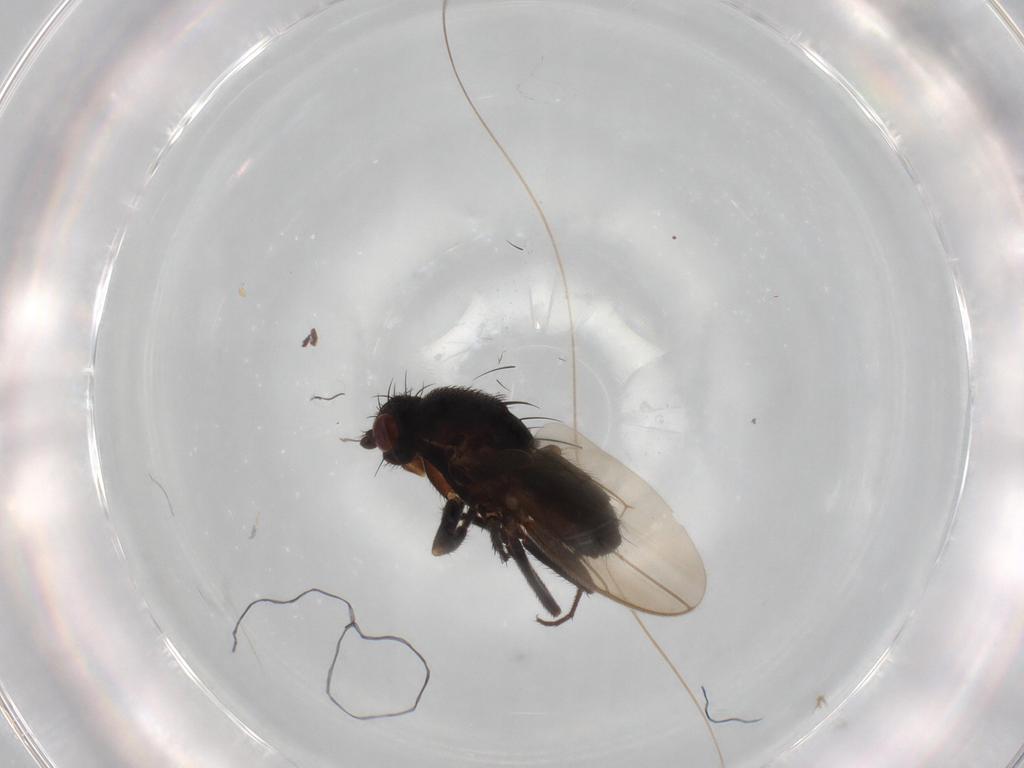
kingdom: Animalia
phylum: Arthropoda
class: Insecta
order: Diptera
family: Sphaeroceridae
